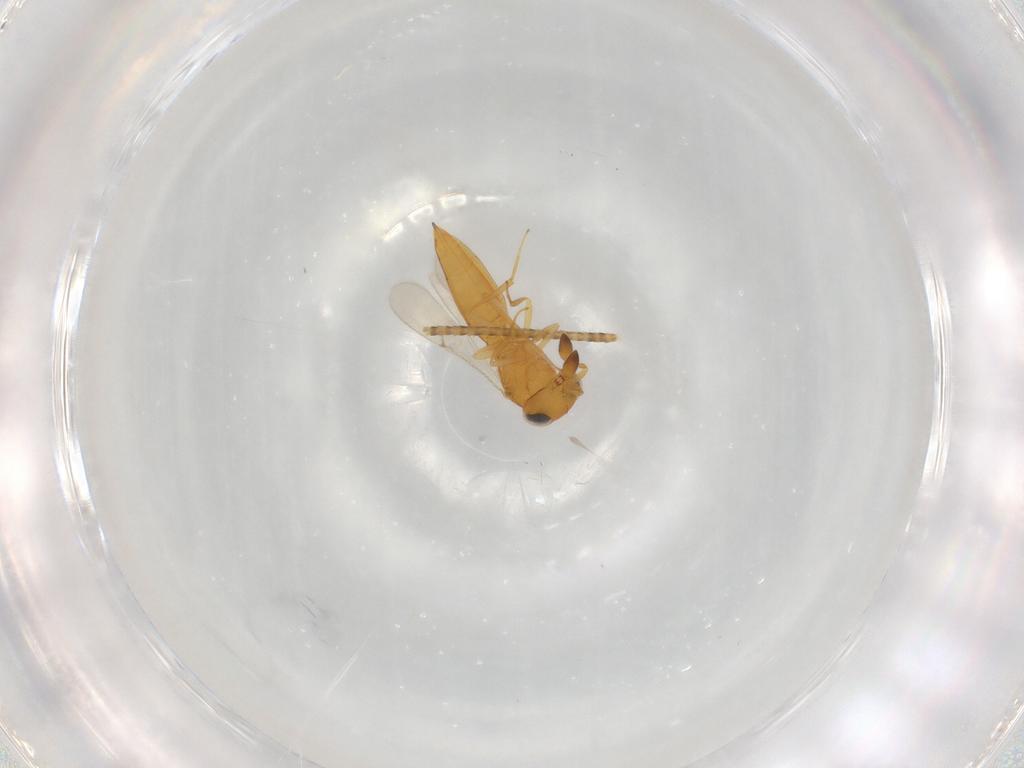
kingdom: Animalia
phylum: Arthropoda
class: Insecta
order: Hymenoptera
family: Scelionidae
